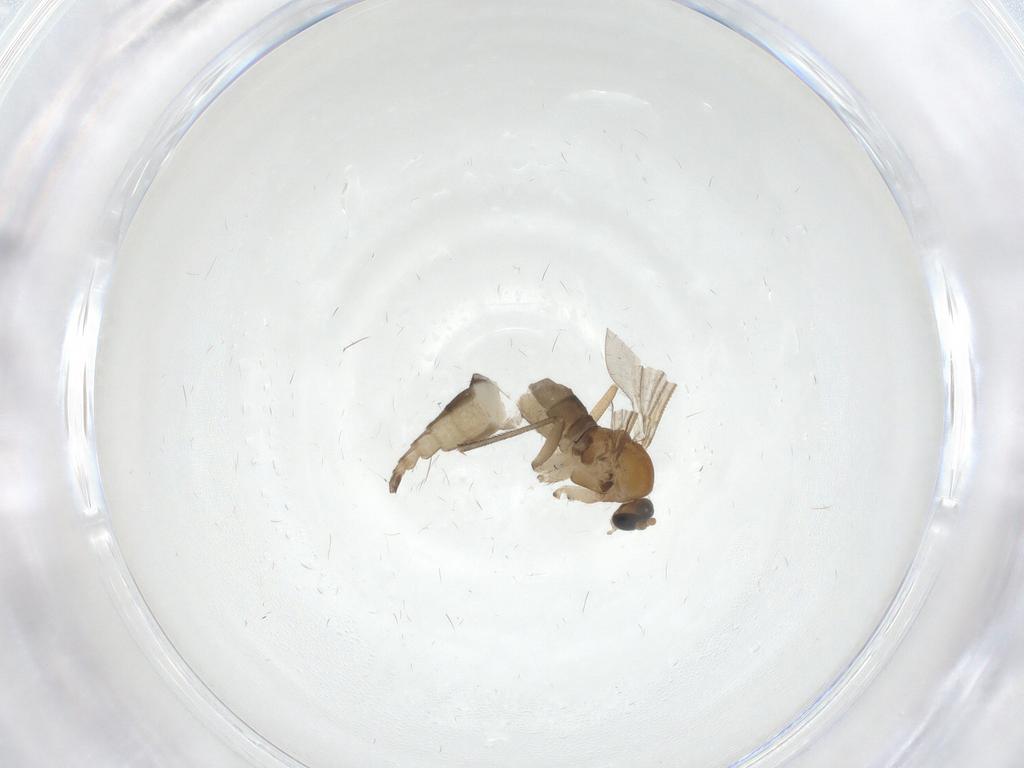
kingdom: Animalia
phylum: Arthropoda
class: Insecta
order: Diptera
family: Sciaridae
